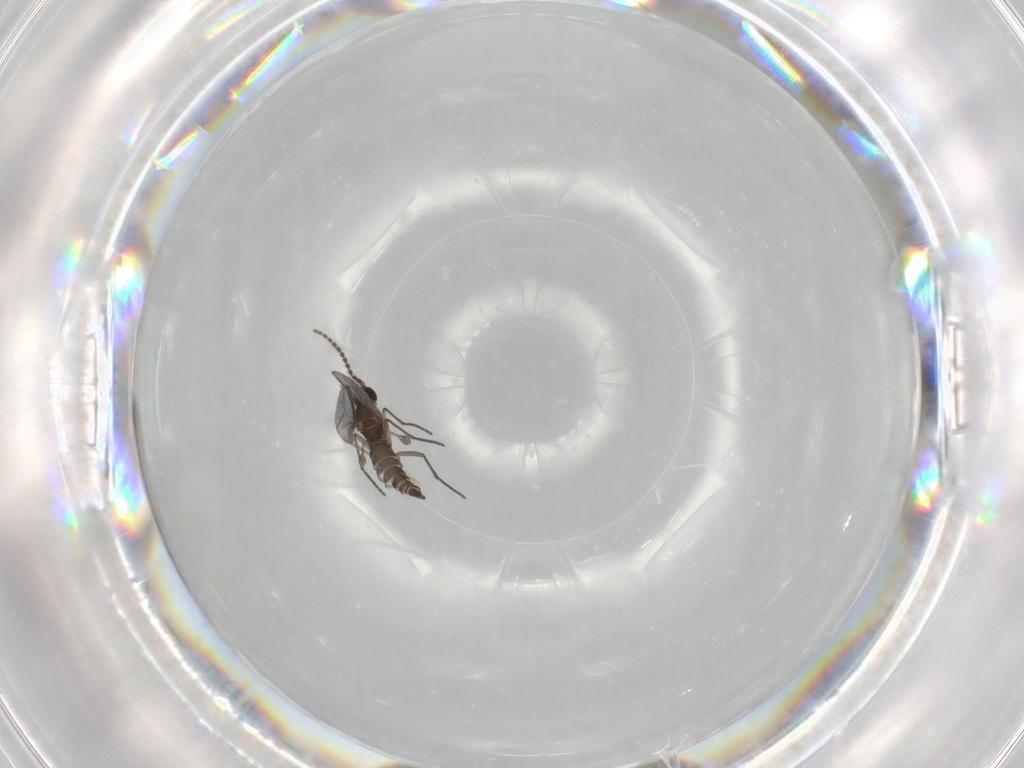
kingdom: Animalia
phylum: Arthropoda
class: Insecta
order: Diptera
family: Sciaridae
